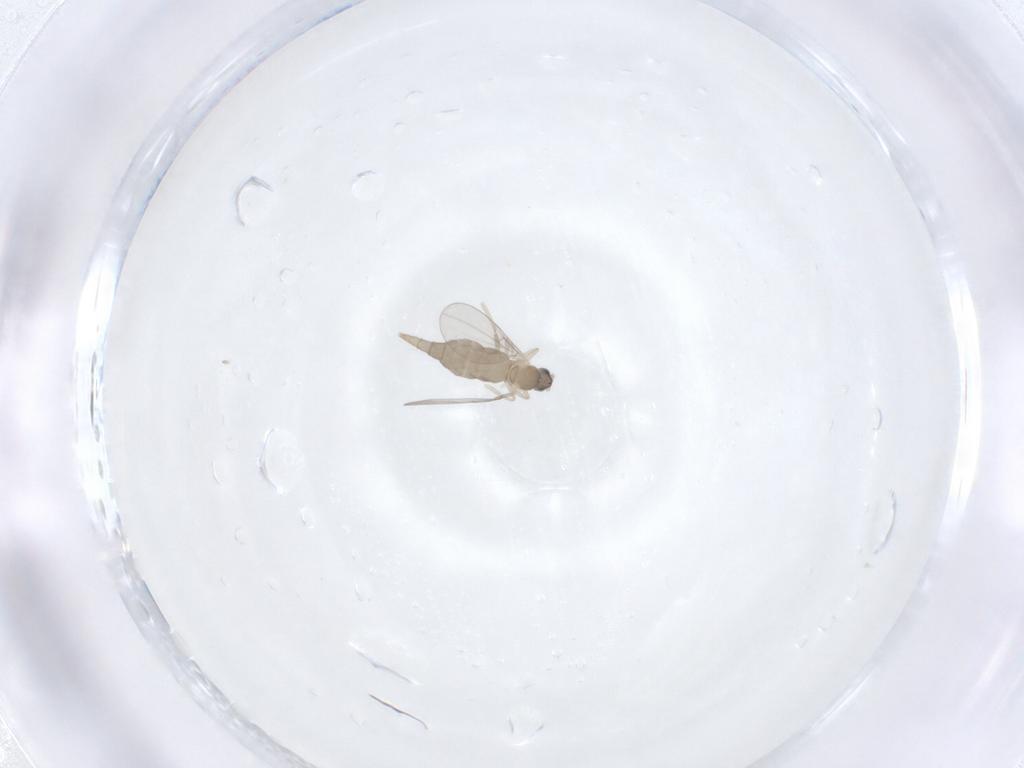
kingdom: Animalia
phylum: Arthropoda
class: Insecta
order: Diptera
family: Cecidomyiidae
